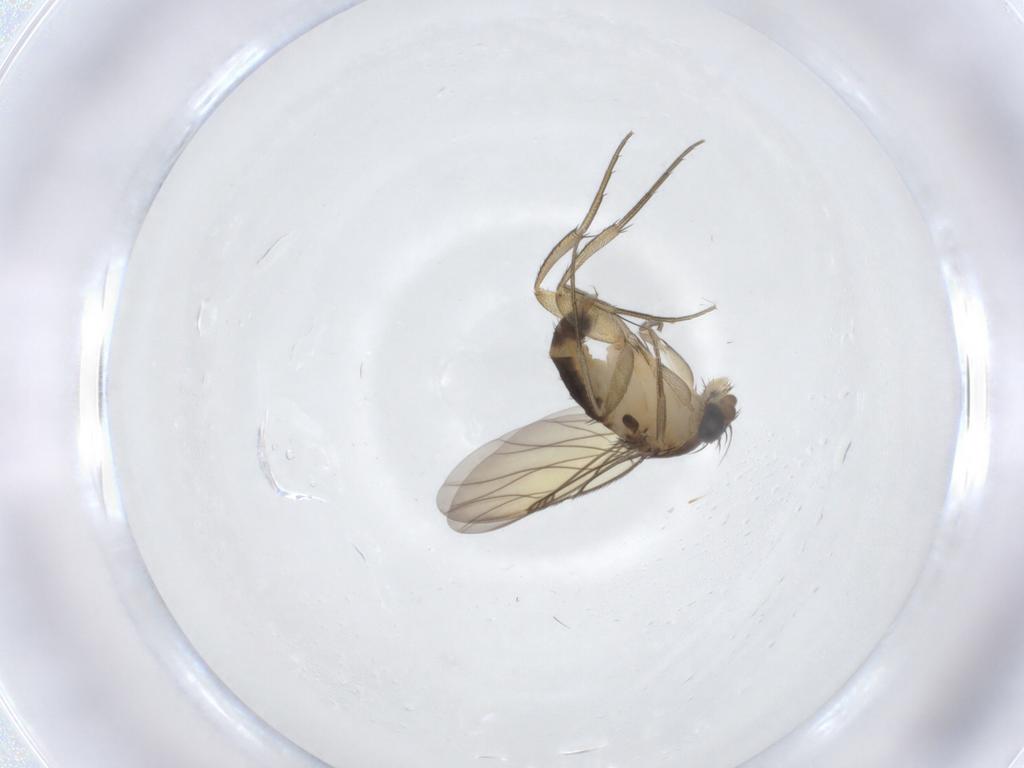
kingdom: Animalia
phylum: Arthropoda
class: Insecta
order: Diptera
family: Phoridae
